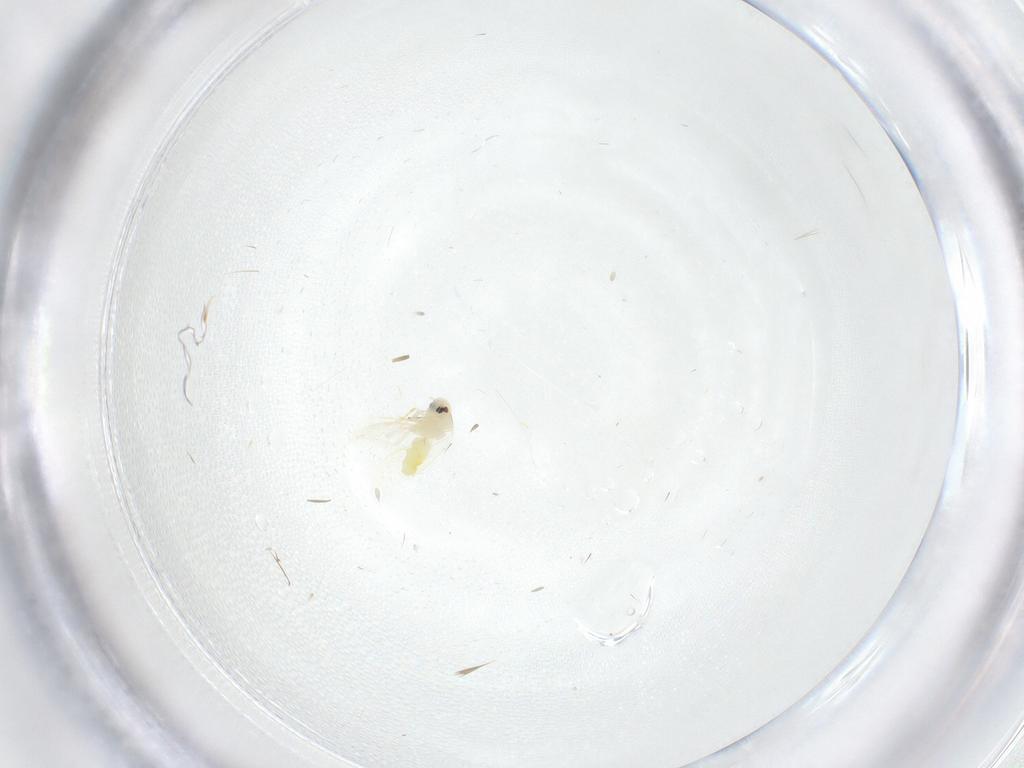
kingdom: Animalia
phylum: Arthropoda
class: Insecta
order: Hemiptera
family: Aleyrodidae
